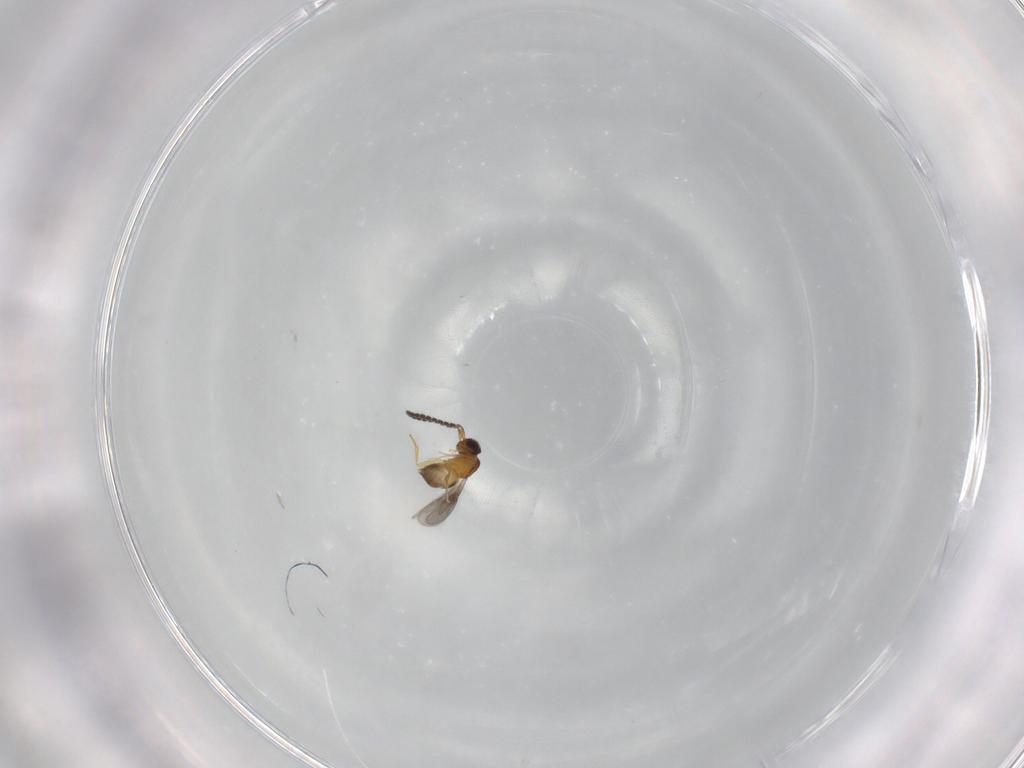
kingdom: Animalia
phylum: Arthropoda
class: Insecta
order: Hymenoptera
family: Ceraphronidae
